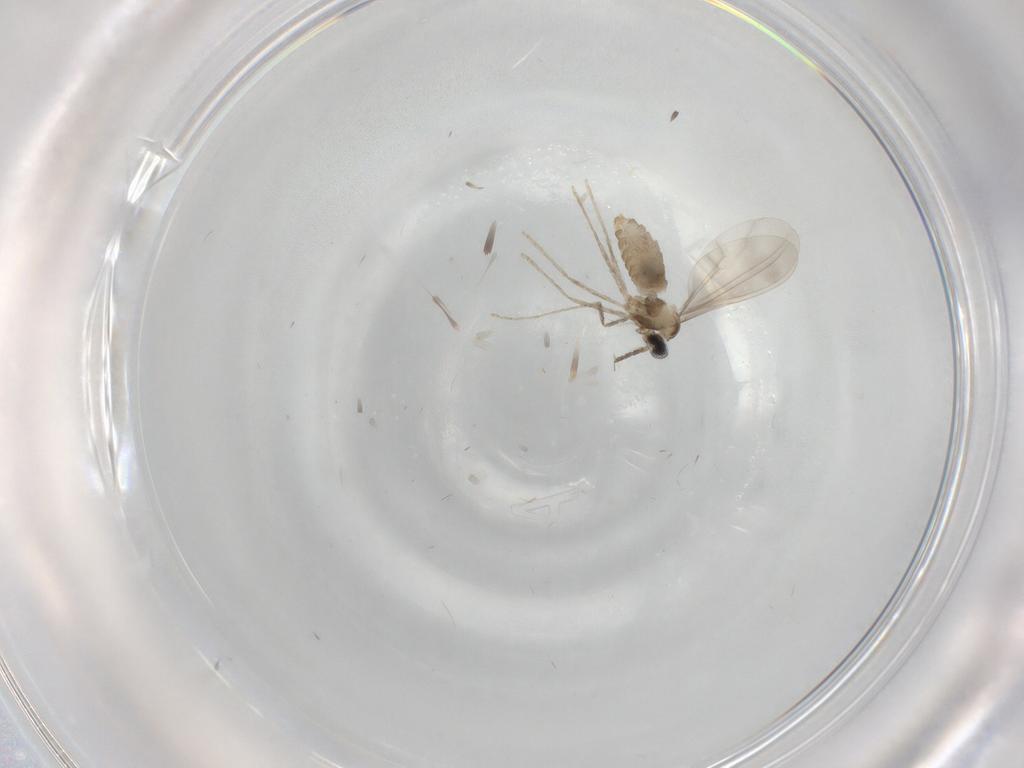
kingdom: Animalia
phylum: Arthropoda
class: Insecta
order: Diptera
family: Cecidomyiidae
